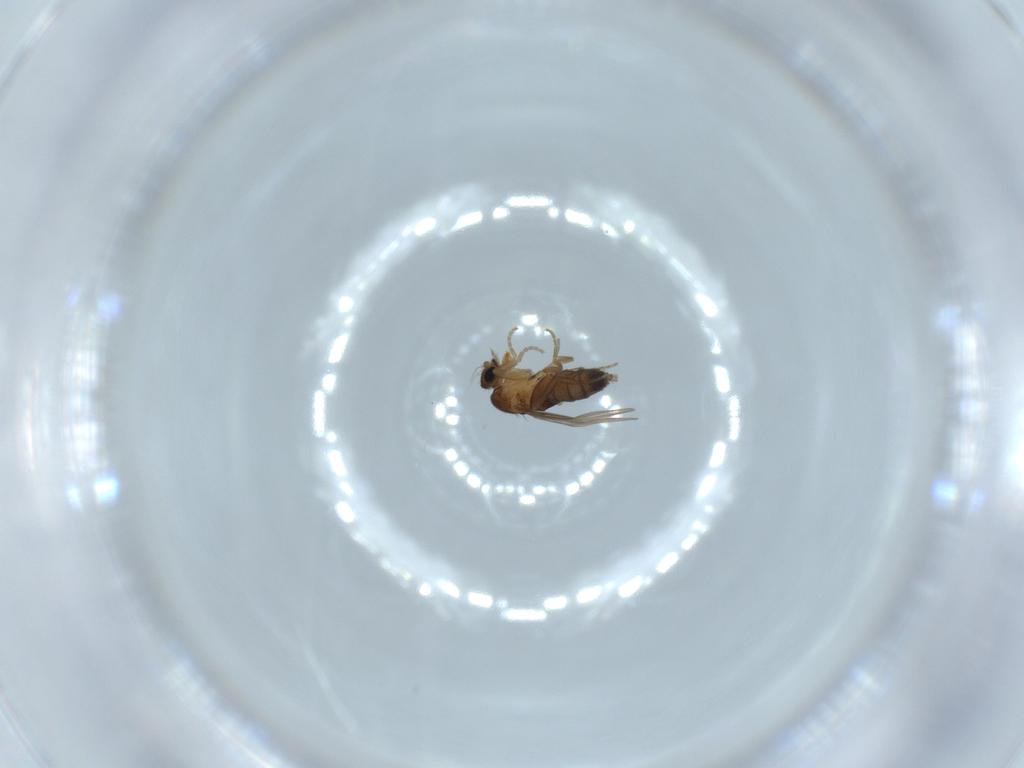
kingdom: Animalia
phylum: Arthropoda
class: Insecta
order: Diptera
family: Phoridae
